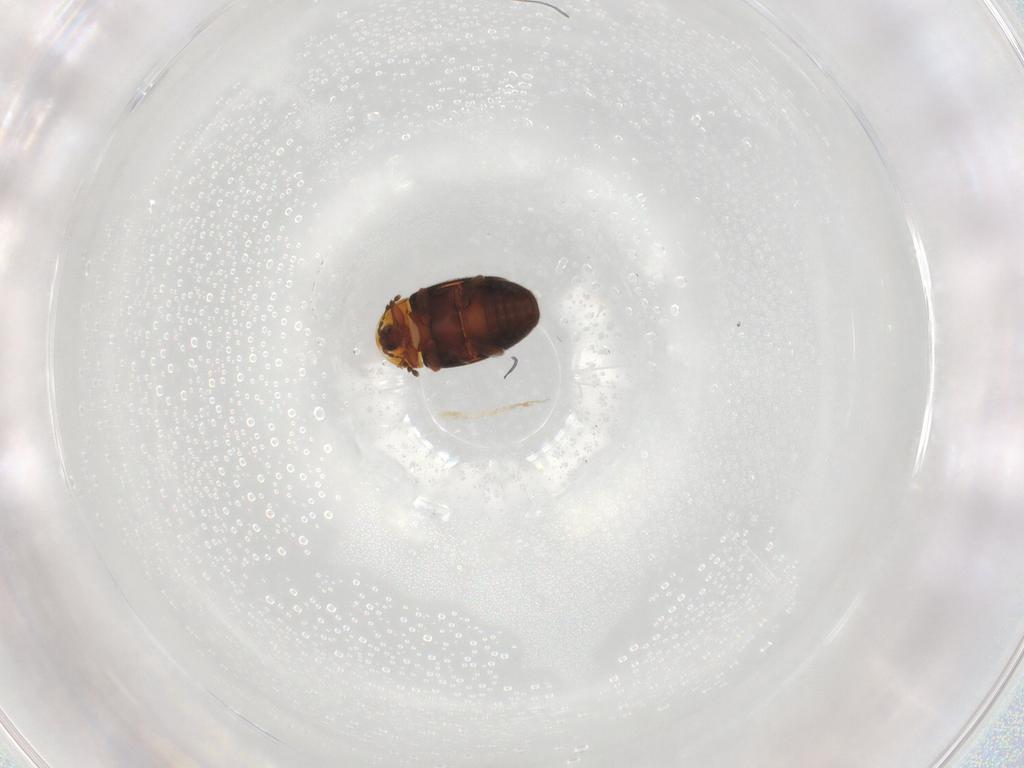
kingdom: Animalia
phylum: Arthropoda
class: Insecta
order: Coleoptera
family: Corylophidae
